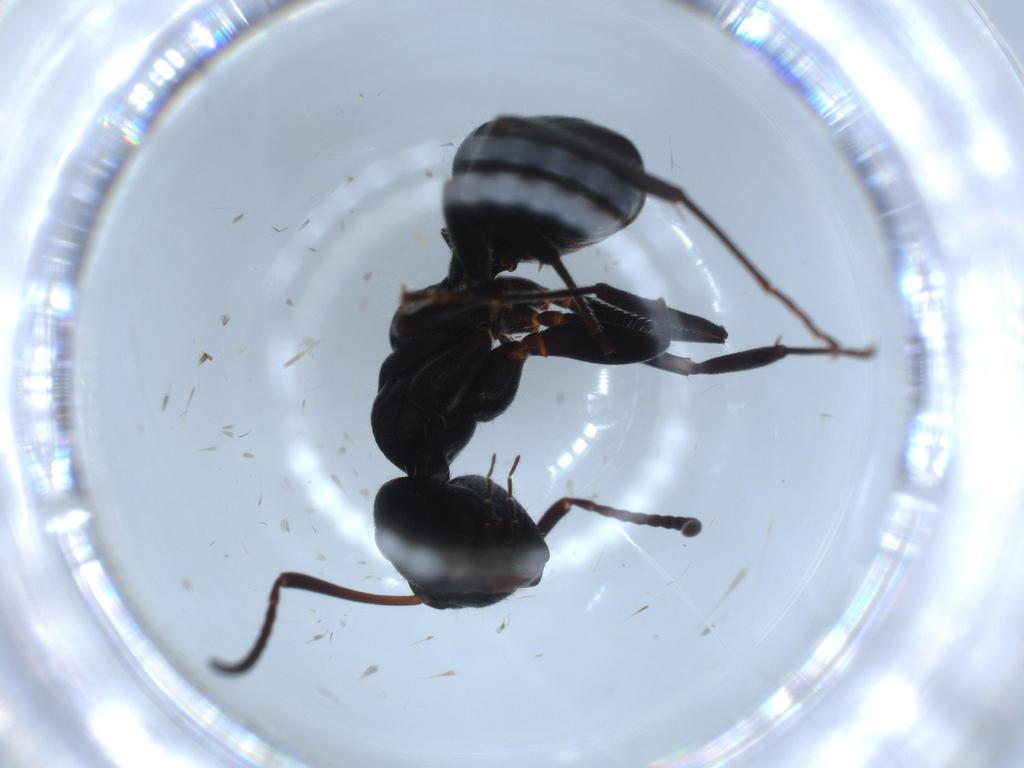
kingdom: Animalia
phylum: Arthropoda
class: Insecta
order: Hymenoptera
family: Formicidae
